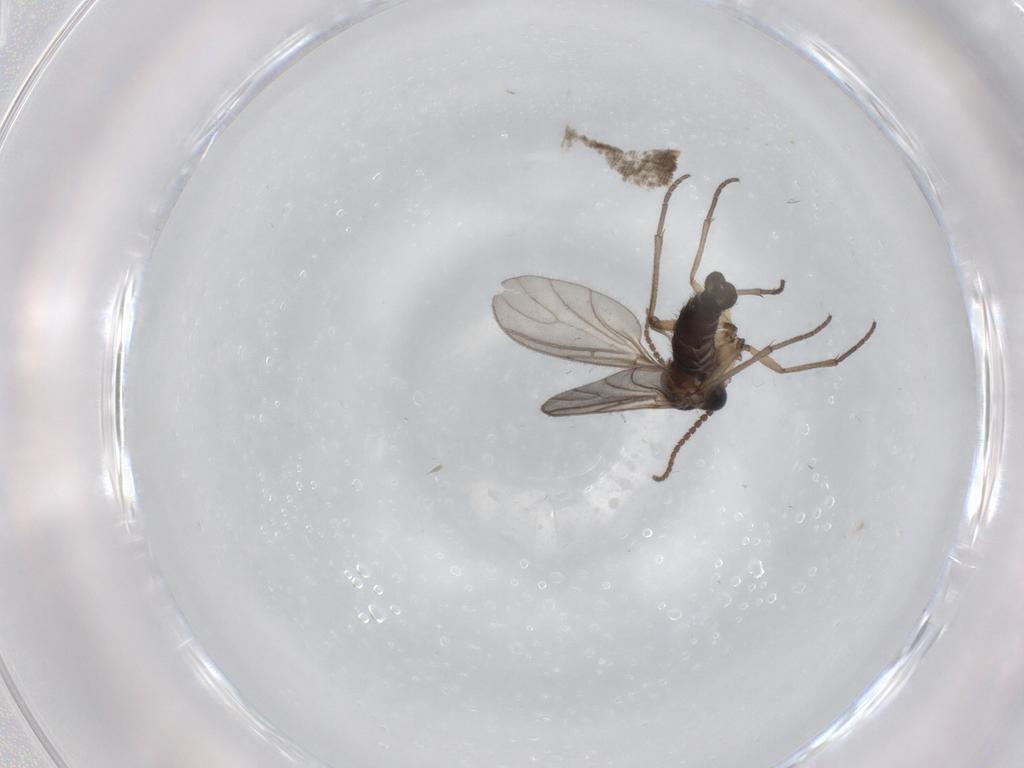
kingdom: Animalia
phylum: Arthropoda
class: Insecta
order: Diptera
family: Sciaridae
